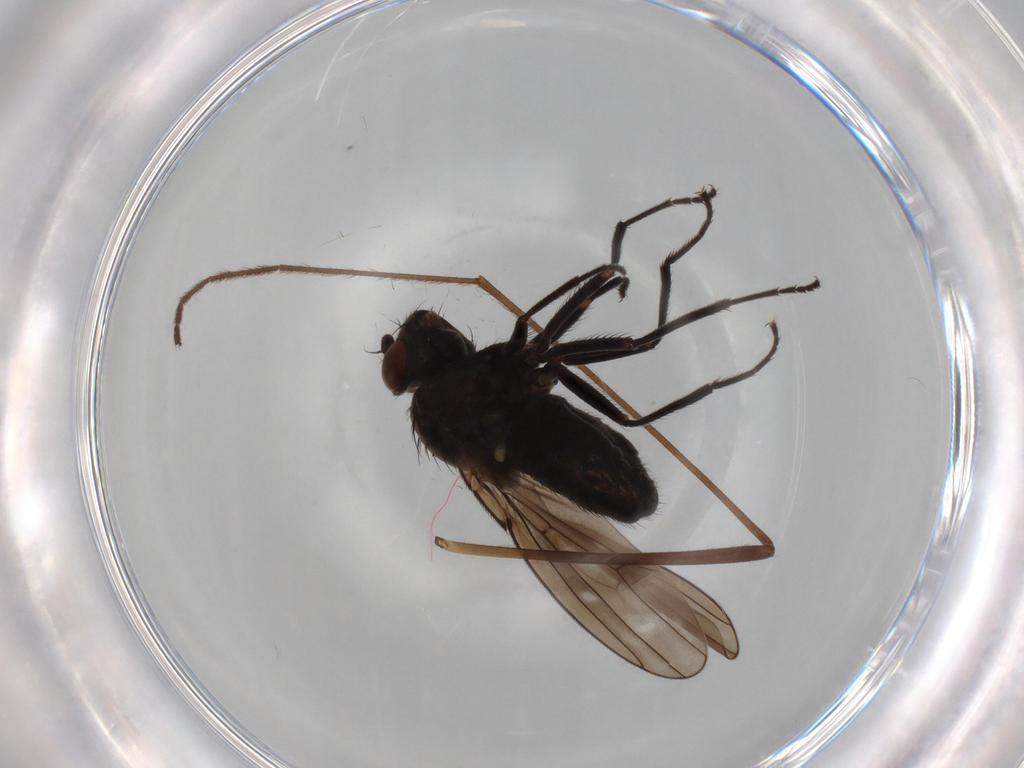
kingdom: Animalia
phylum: Arthropoda
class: Insecta
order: Diptera
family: Ephydridae
